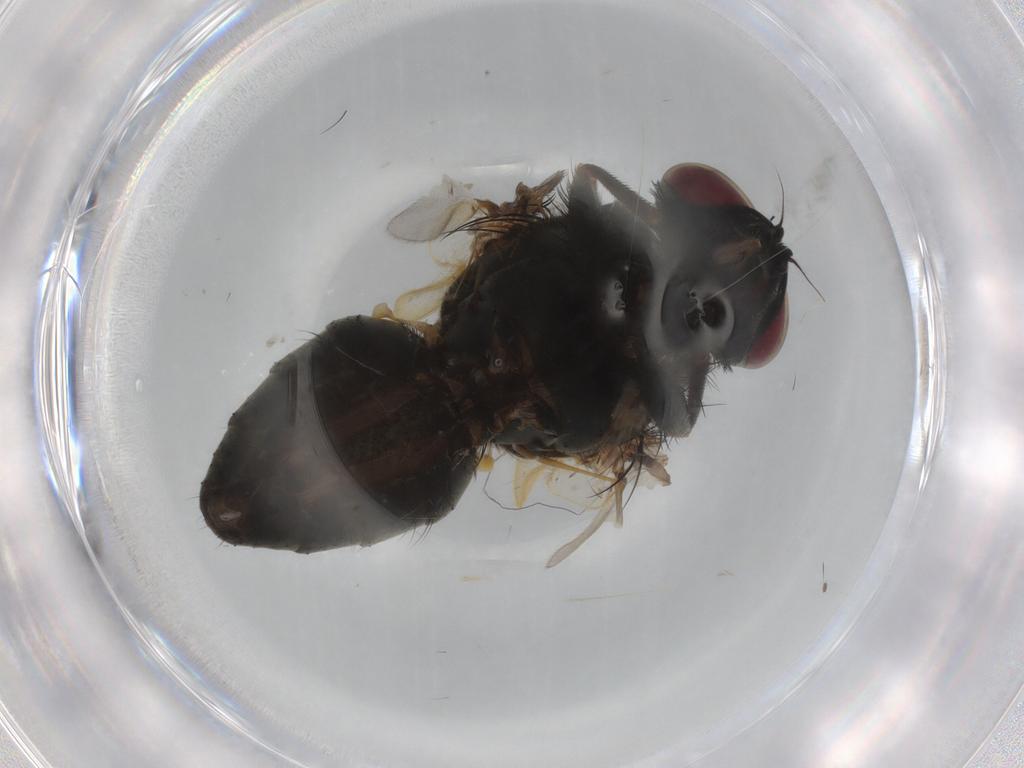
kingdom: Animalia
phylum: Arthropoda
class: Insecta
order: Diptera
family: Muscidae
